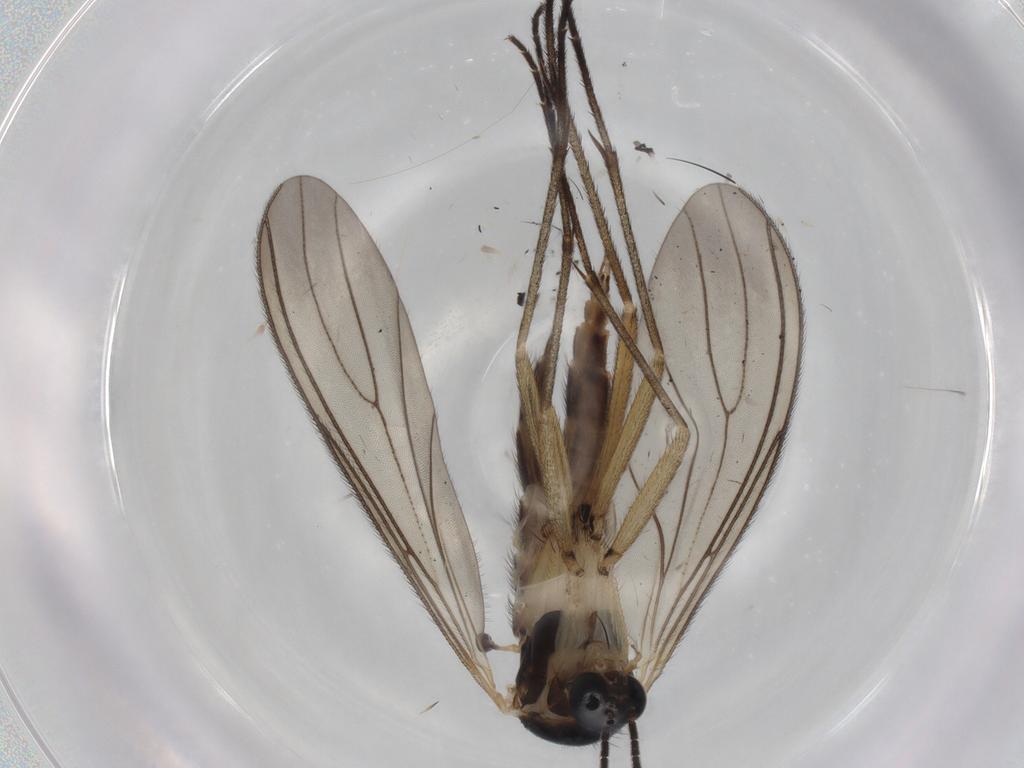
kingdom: Animalia
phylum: Arthropoda
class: Insecta
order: Diptera
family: Sciaridae
